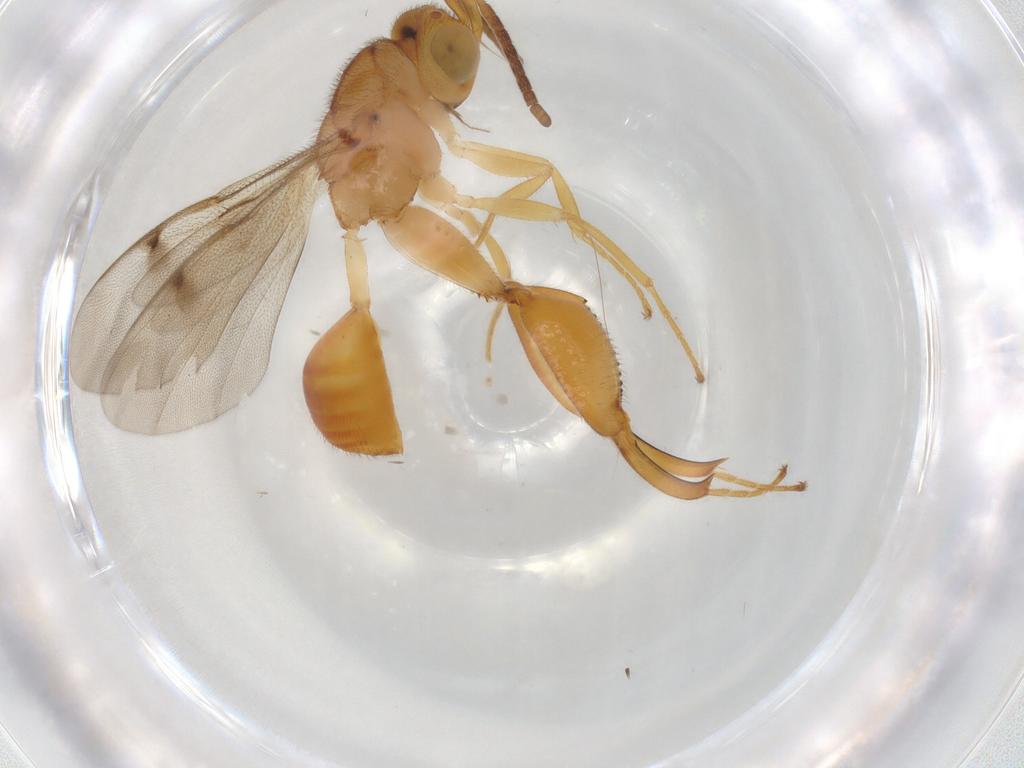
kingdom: Animalia
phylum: Arthropoda
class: Insecta
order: Hymenoptera
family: Chalcididae
